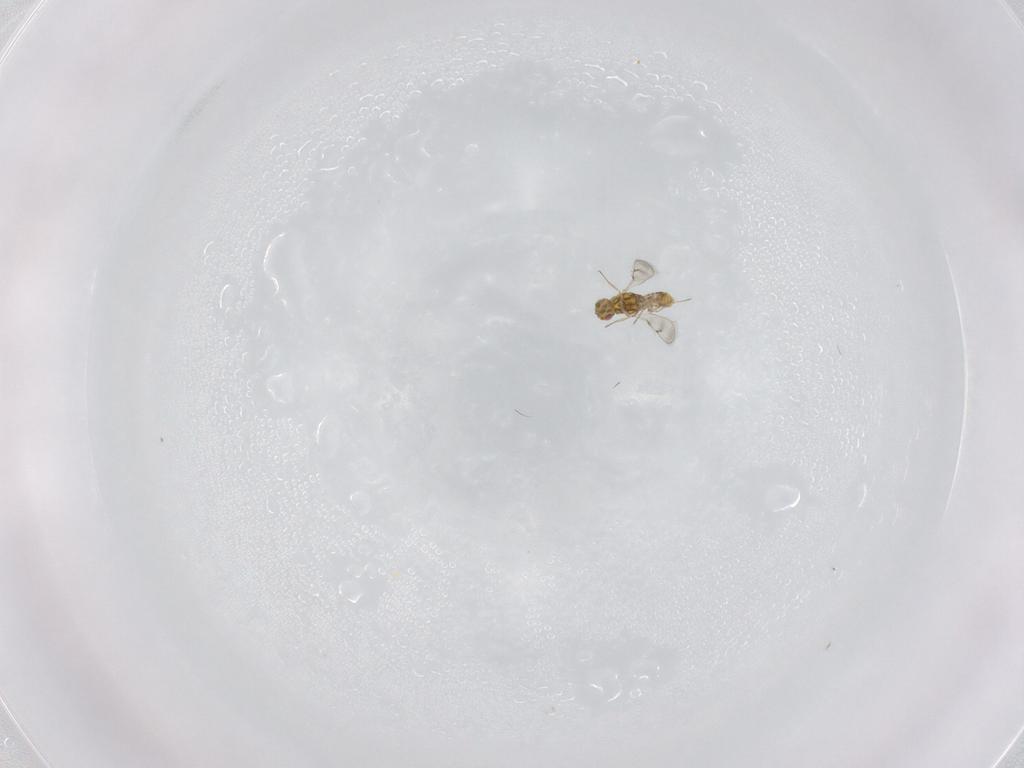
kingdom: Animalia
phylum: Arthropoda
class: Insecta
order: Hymenoptera
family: Eulophidae
